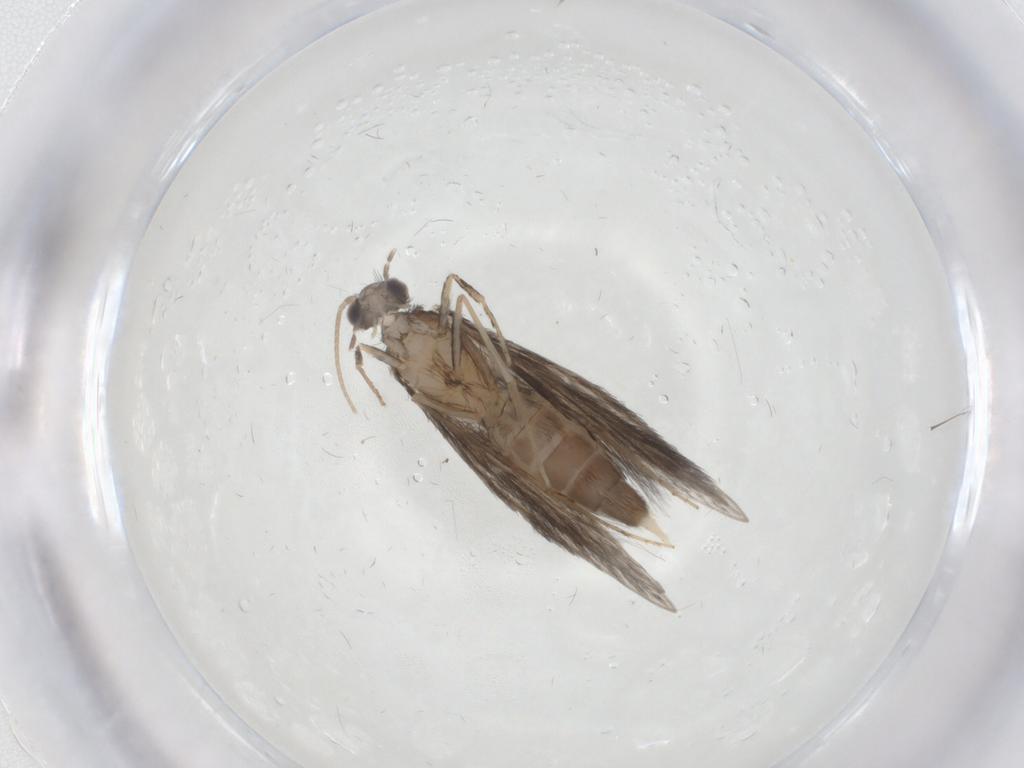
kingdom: Animalia
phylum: Arthropoda
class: Insecta
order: Trichoptera
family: Hydroptilidae
